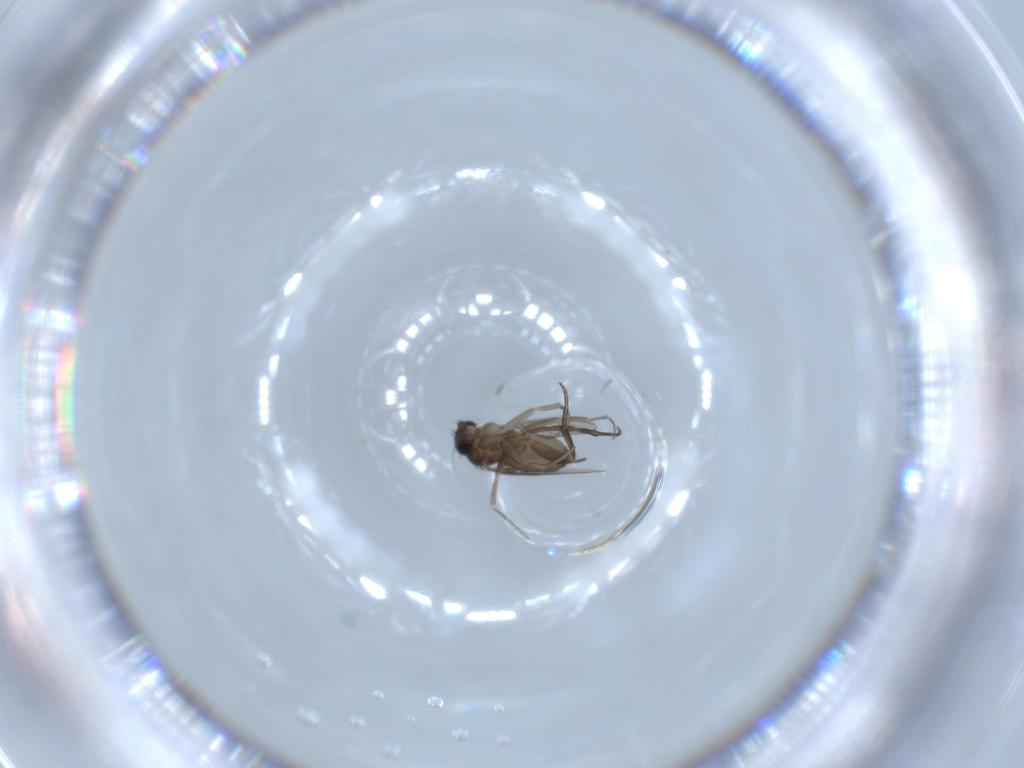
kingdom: Animalia
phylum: Arthropoda
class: Insecta
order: Diptera
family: Phoridae
